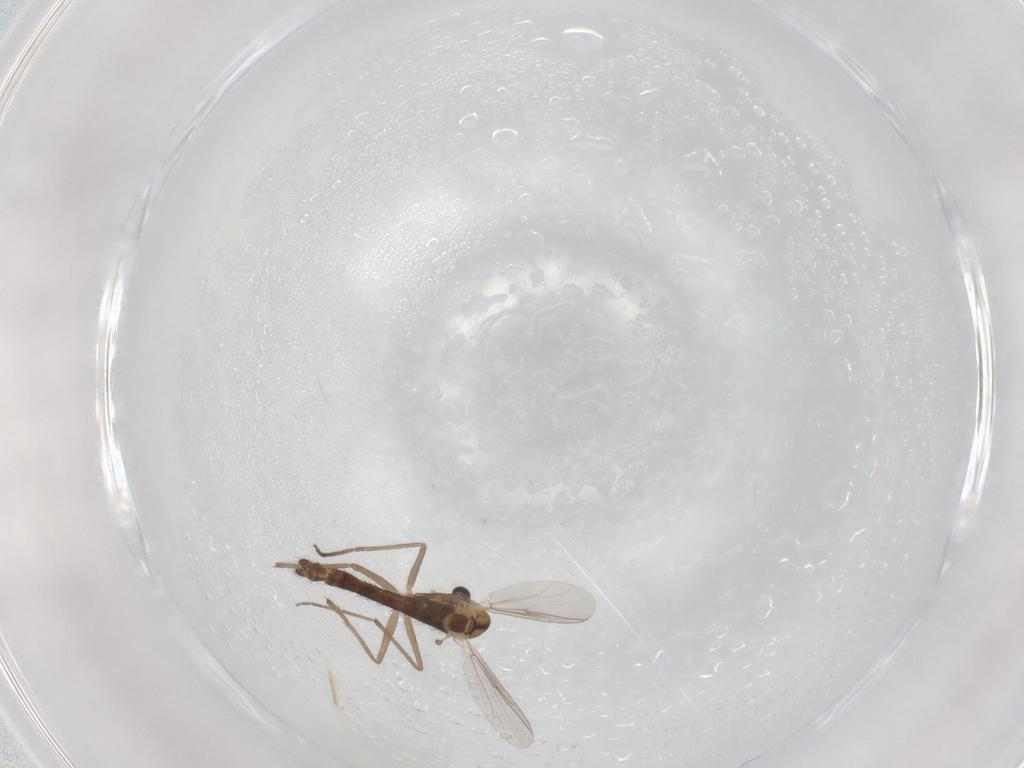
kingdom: Animalia
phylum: Arthropoda
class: Insecta
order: Diptera
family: Chironomidae
